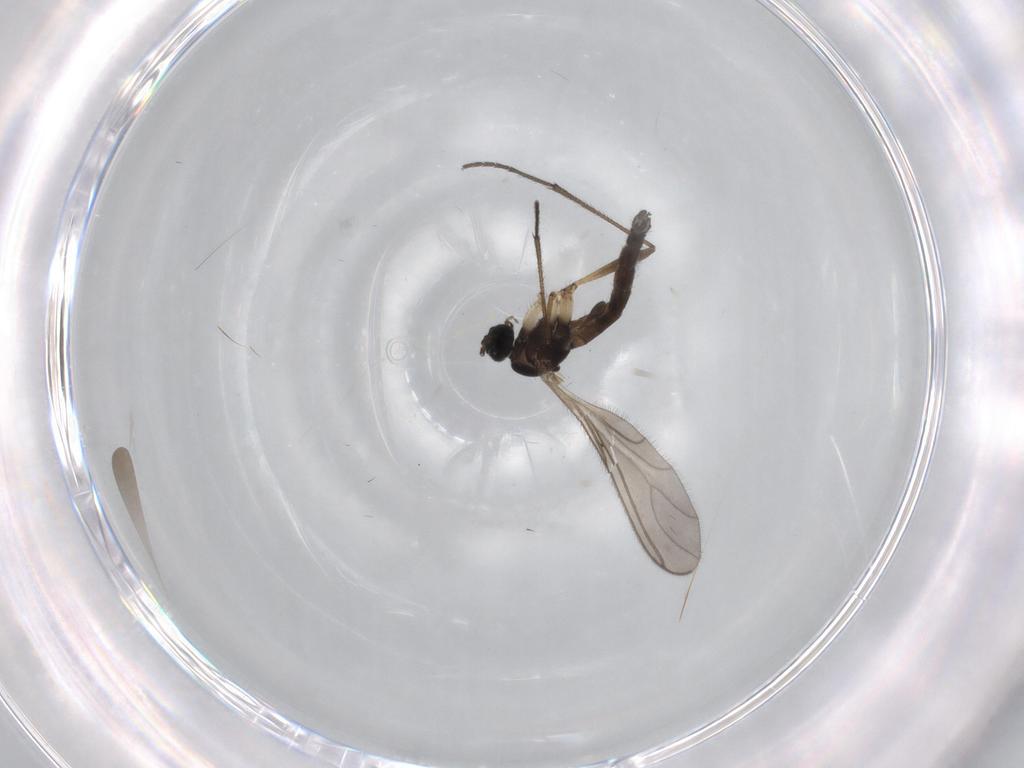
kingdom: Animalia
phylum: Arthropoda
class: Insecta
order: Diptera
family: Sciaridae
